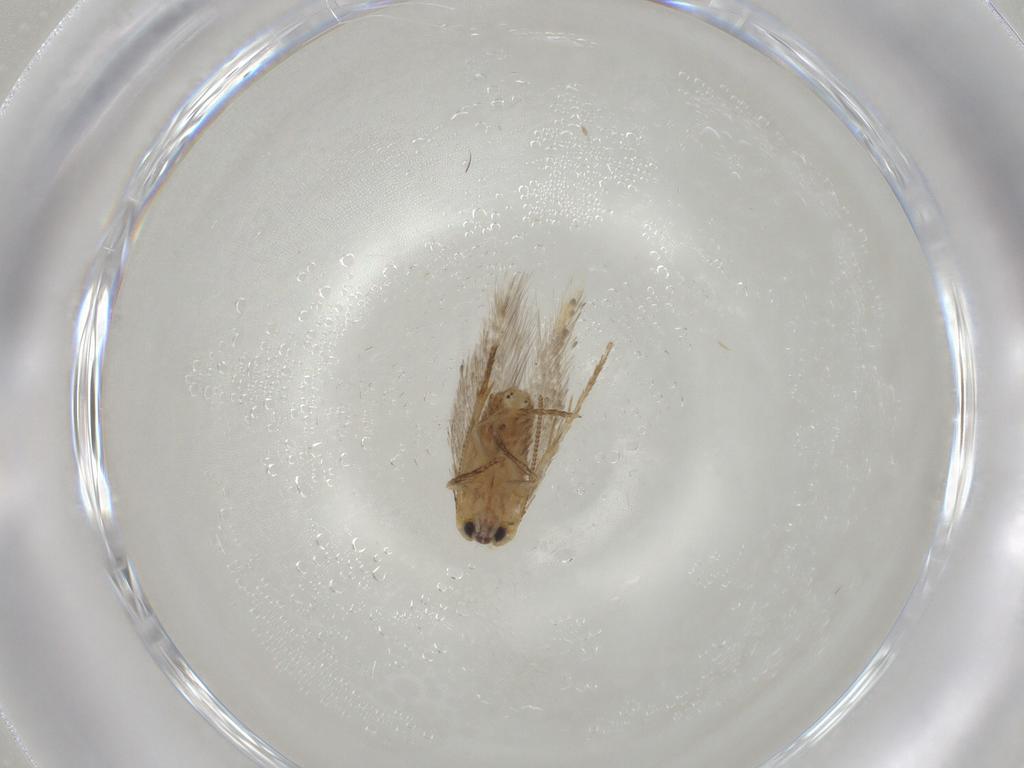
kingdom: Animalia
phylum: Arthropoda
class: Insecta
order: Lepidoptera
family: Nepticulidae
